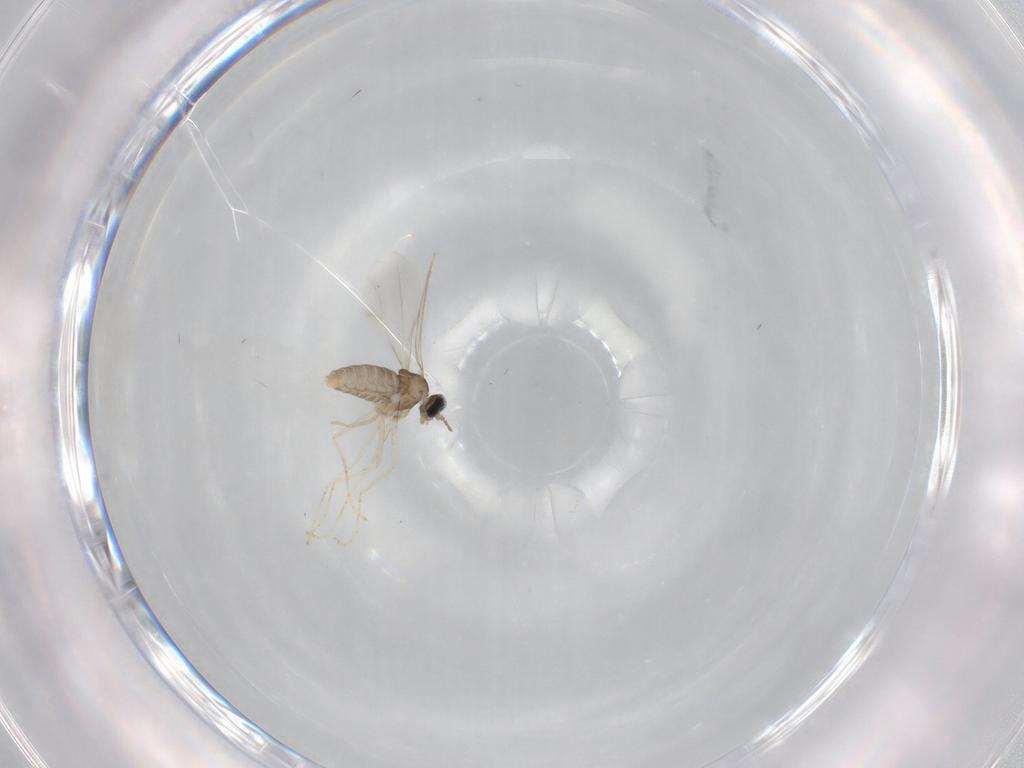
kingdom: Animalia
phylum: Arthropoda
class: Insecta
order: Diptera
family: Cecidomyiidae
